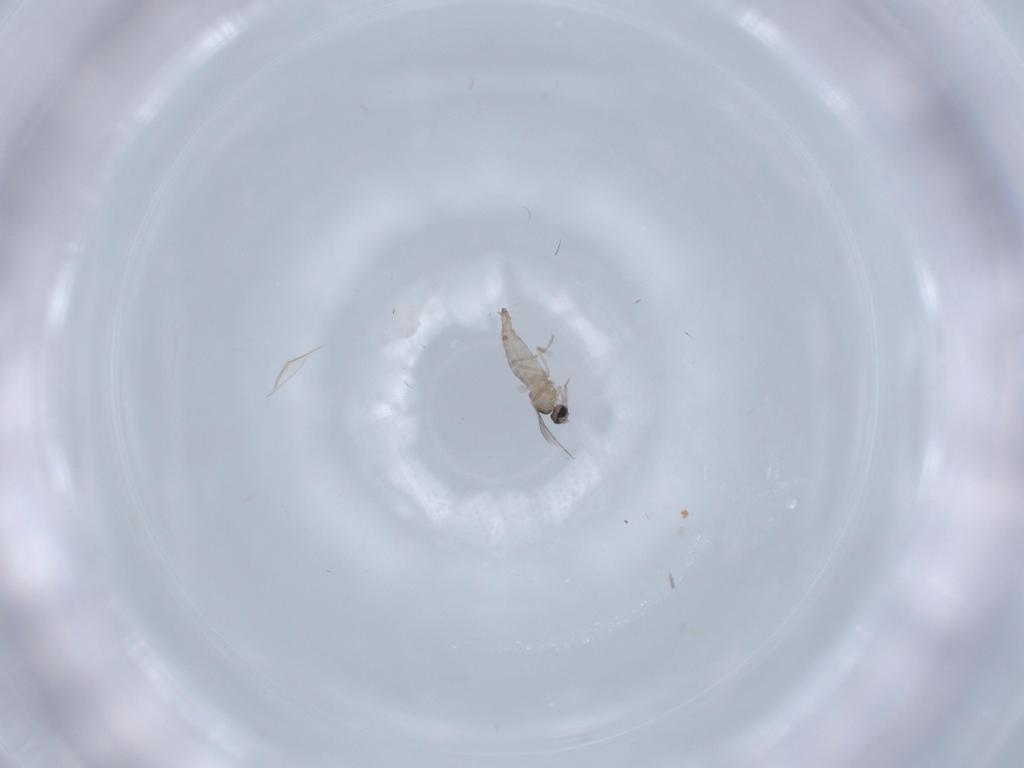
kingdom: Animalia
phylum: Arthropoda
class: Insecta
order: Diptera
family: Cecidomyiidae
